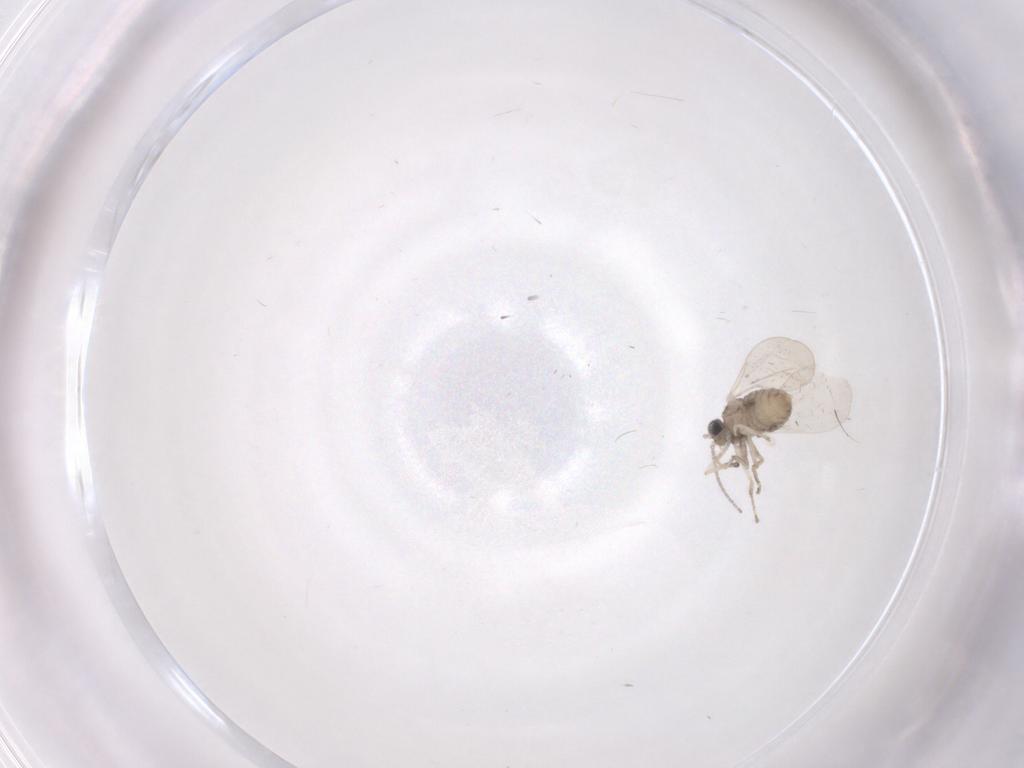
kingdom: Animalia
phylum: Arthropoda
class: Insecta
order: Diptera
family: Cecidomyiidae
